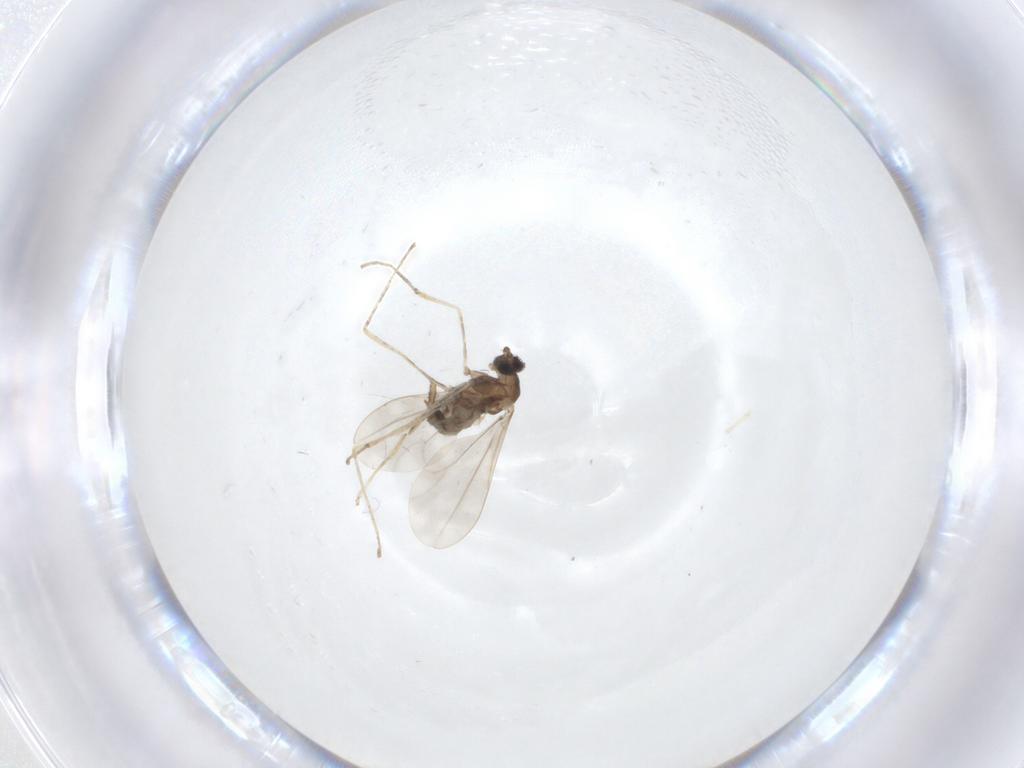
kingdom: Animalia
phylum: Arthropoda
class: Insecta
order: Diptera
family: Cecidomyiidae
